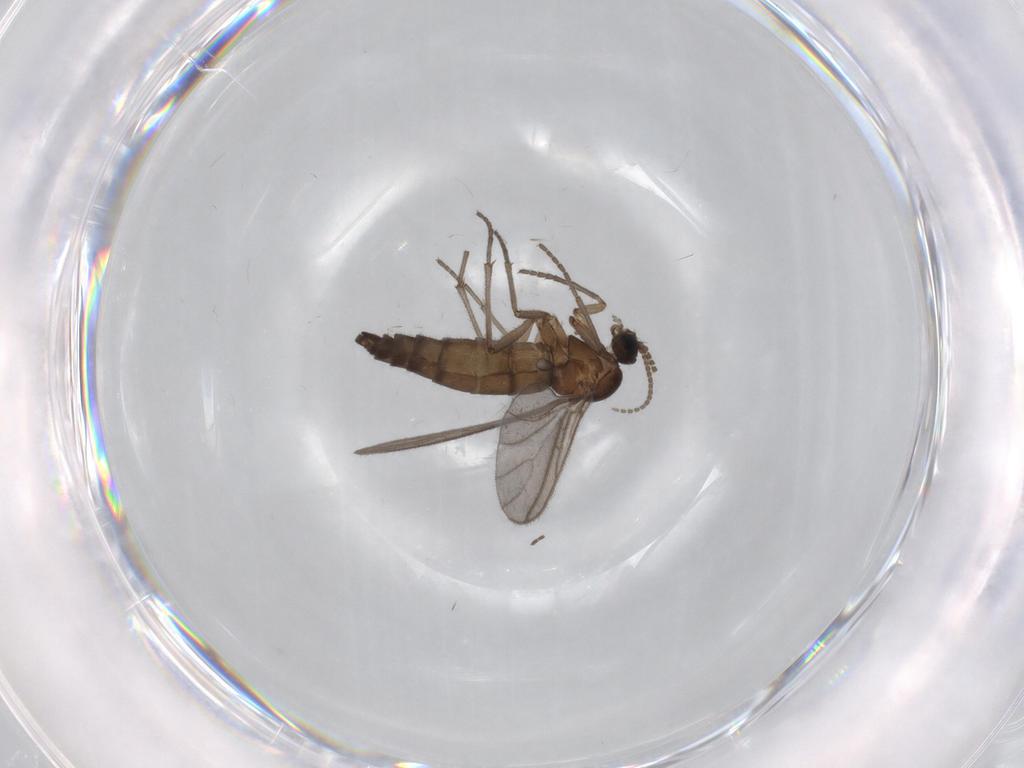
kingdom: Animalia
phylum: Arthropoda
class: Insecta
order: Diptera
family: Sciaridae
